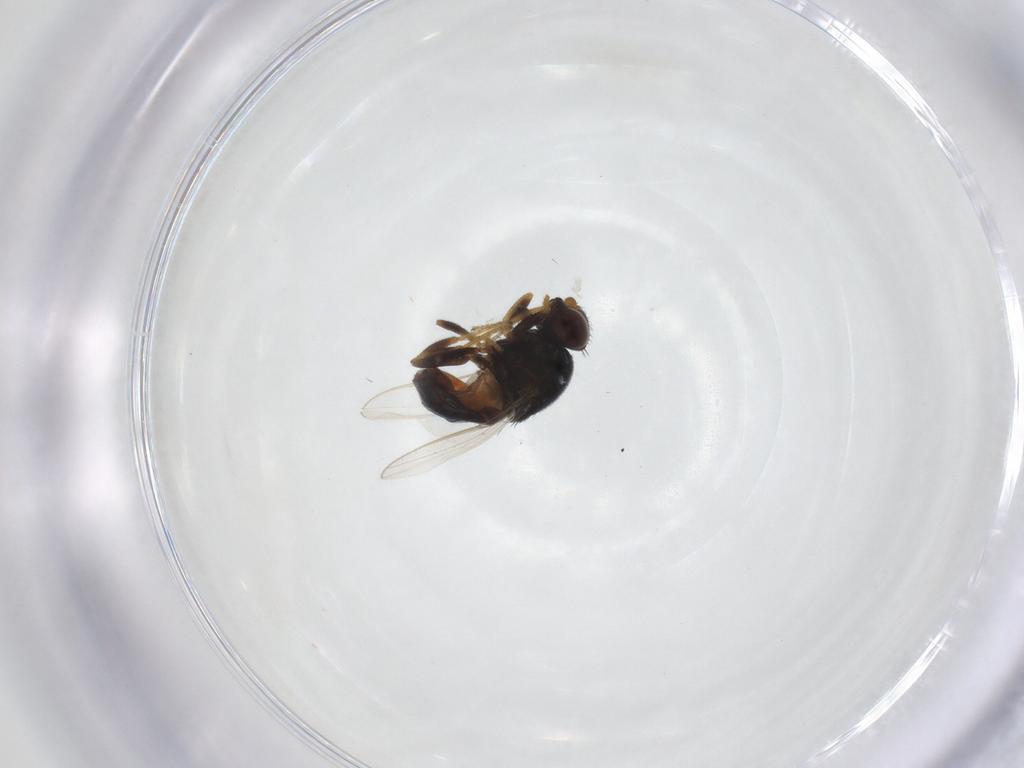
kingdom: Animalia
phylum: Arthropoda
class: Insecta
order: Diptera
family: Chloropidae
